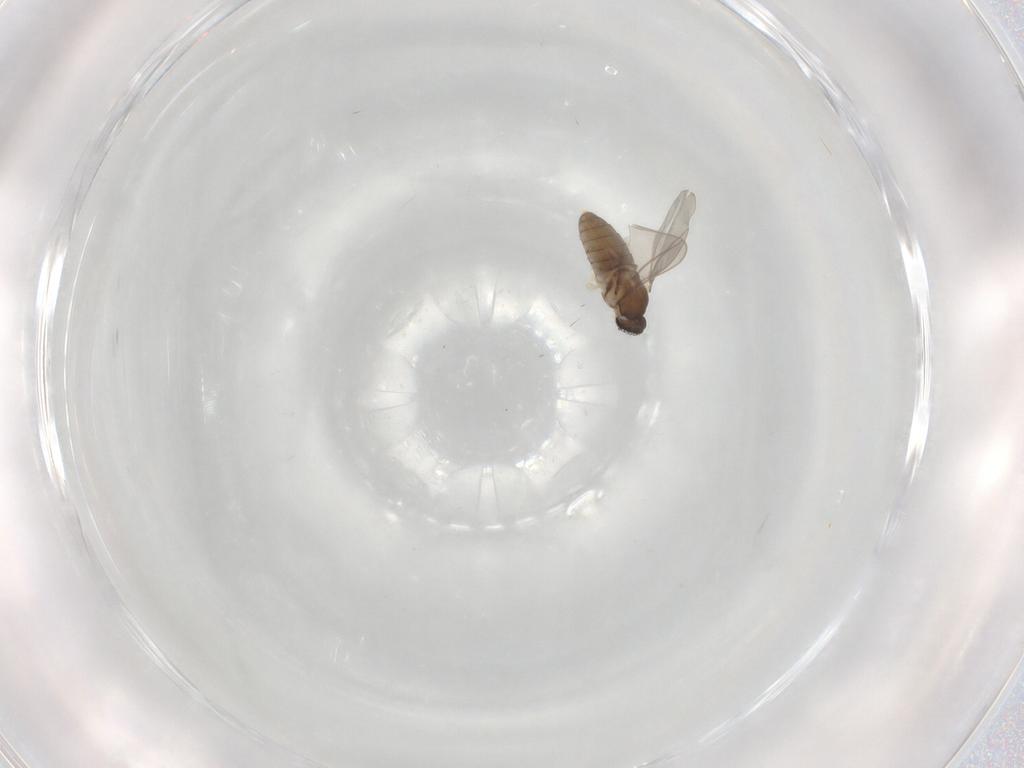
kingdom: Animalia
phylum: Arthropoda
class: Insecta
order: Diptera
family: Cecidomyiidae
